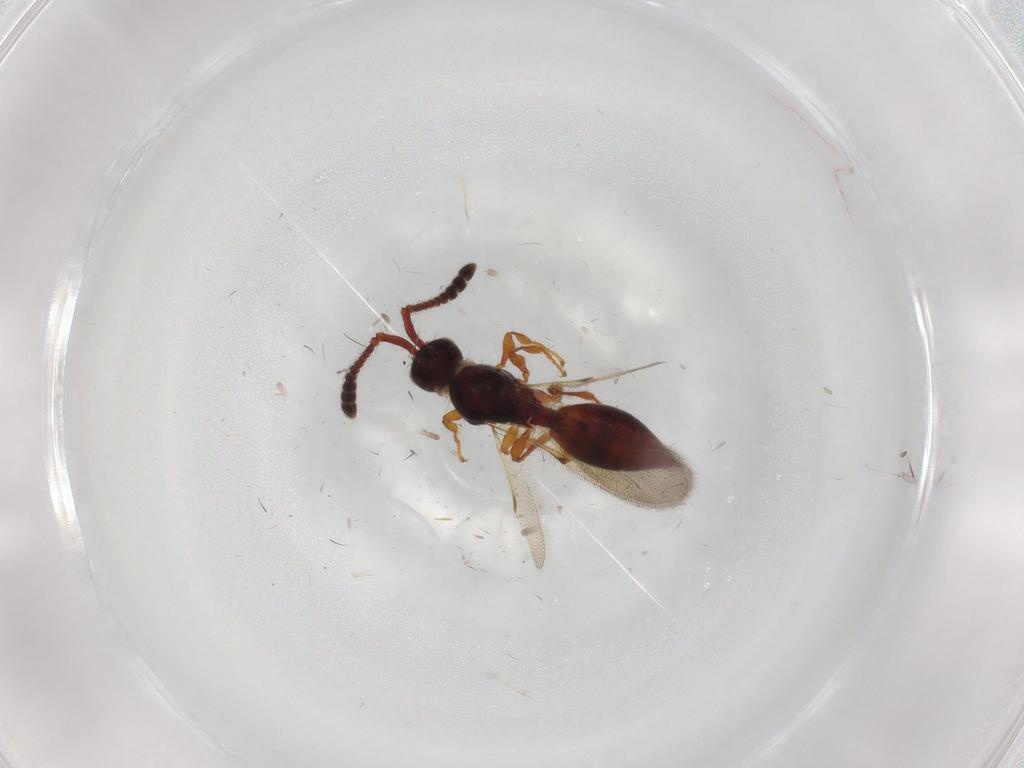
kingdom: Animalia
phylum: Arthropoda
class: Insecta
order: Hymenoptera
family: Diapriidae
